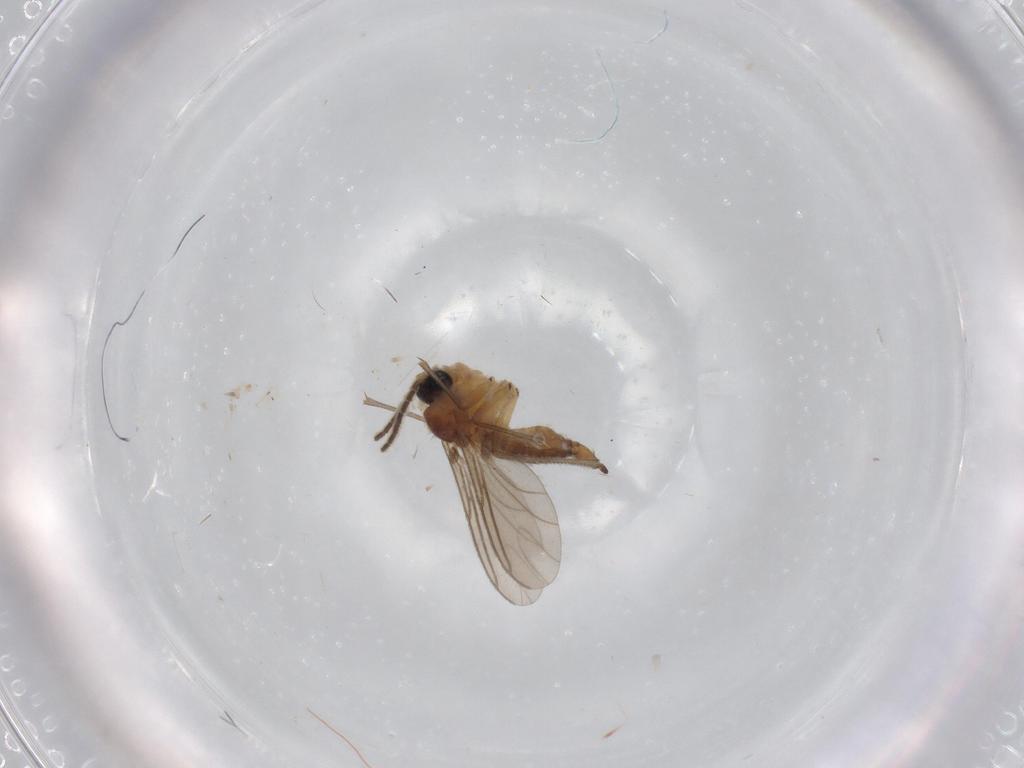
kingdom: Animalia
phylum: Arthropoda
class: Insecta
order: Diptera
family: Sciaridae
